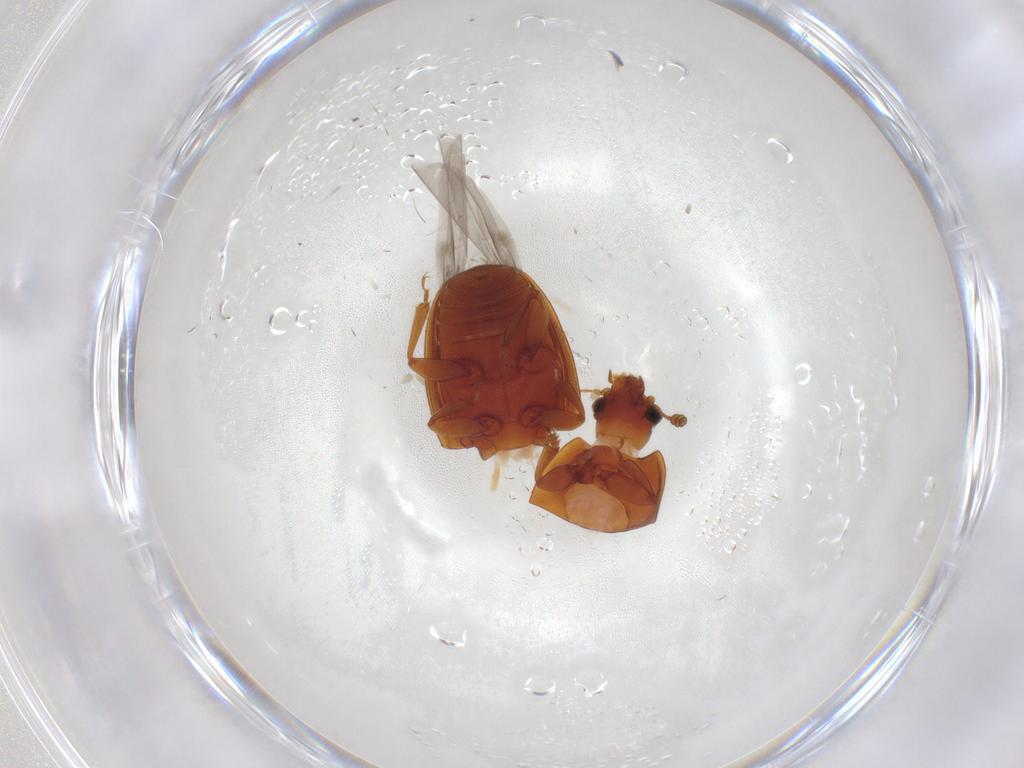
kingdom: Animalia
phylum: Arthropoda
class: Insecta
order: Coleoptera
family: Nitidulidae
